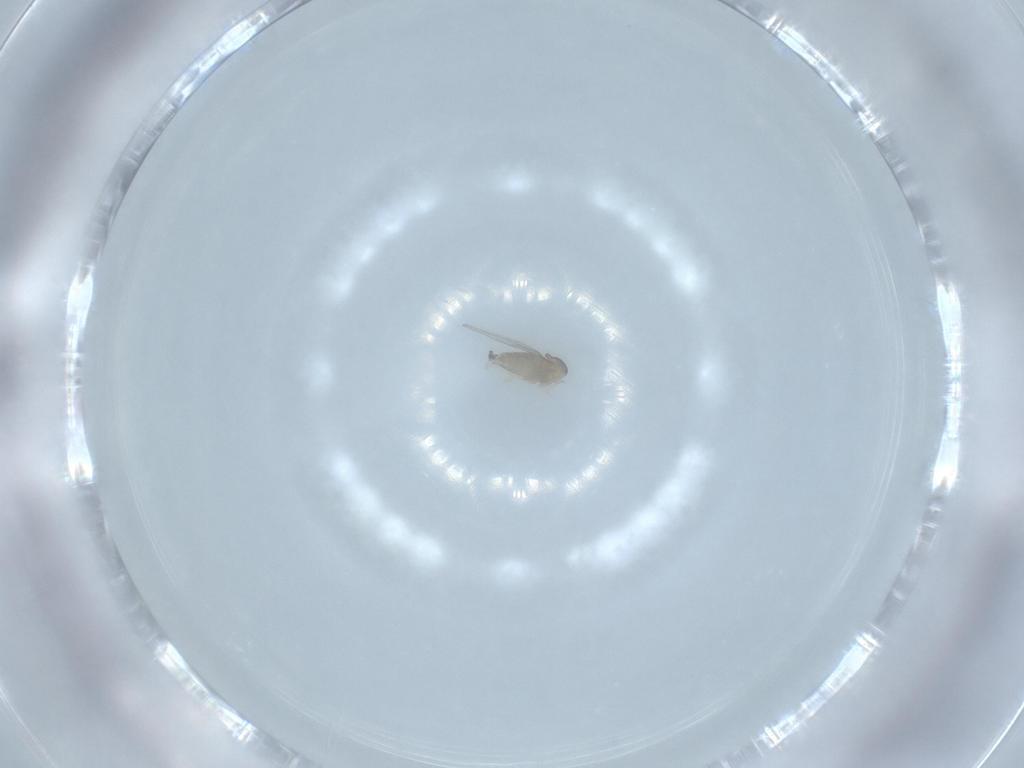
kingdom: Animalia
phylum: Arthropoda
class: Insecta
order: Diptera
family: Cecidomyiidae
